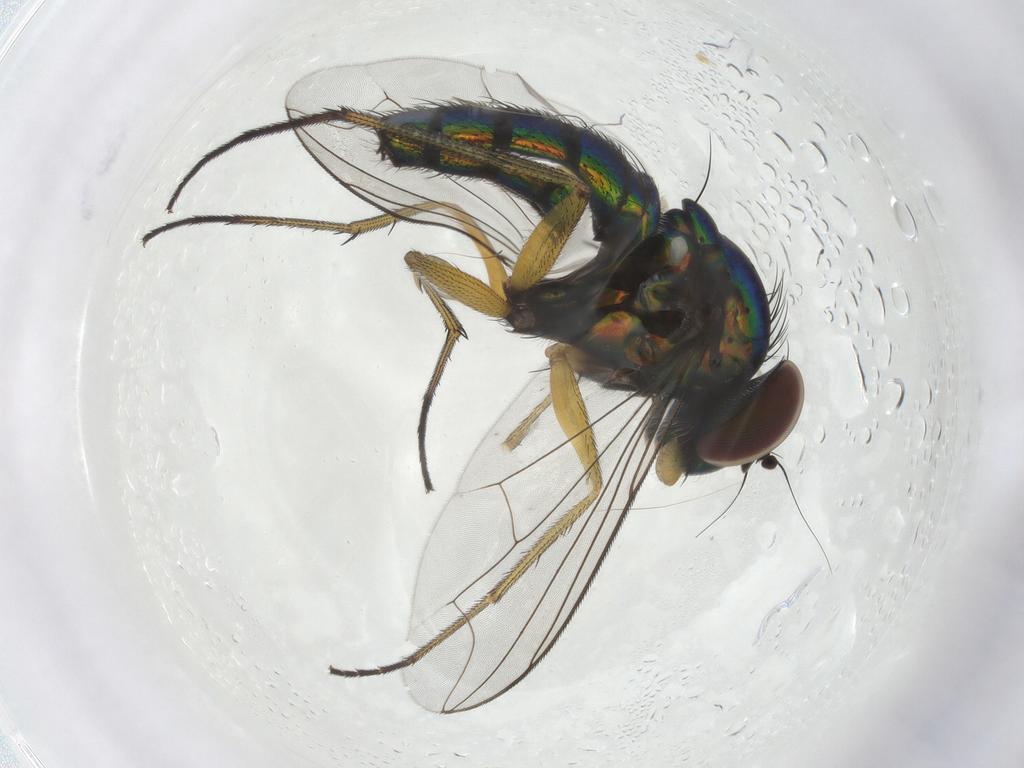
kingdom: Animalia
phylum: Arthropoda
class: Insecta
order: Diptera
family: Dolichopodidae
